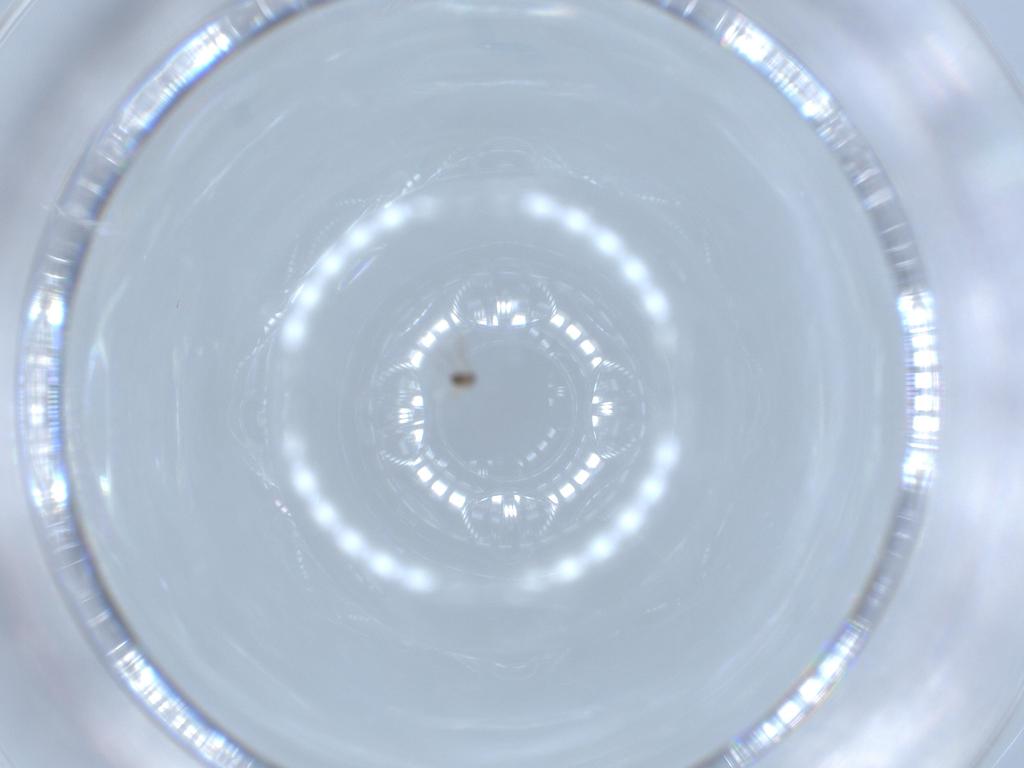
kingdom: Animalia
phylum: Arthropoda
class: Insecta
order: Hymenoptera
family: Mymaridae
